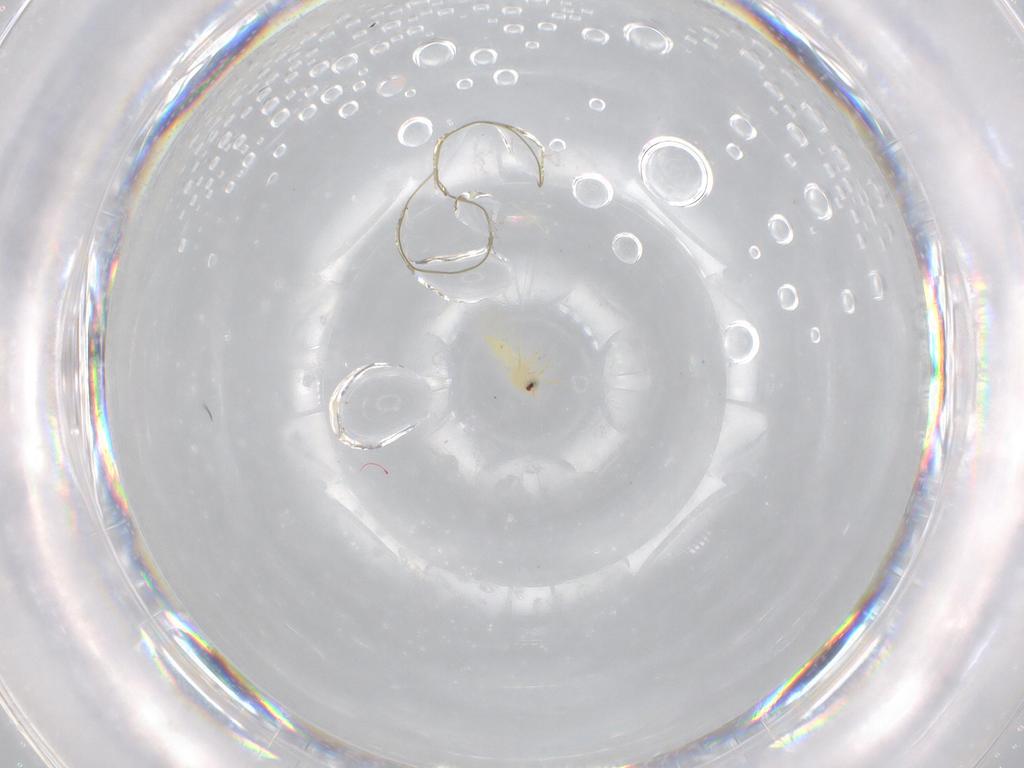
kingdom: Animalia
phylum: Arthropoda
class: Insecta
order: Hemiptera
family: Aleyrodidae
